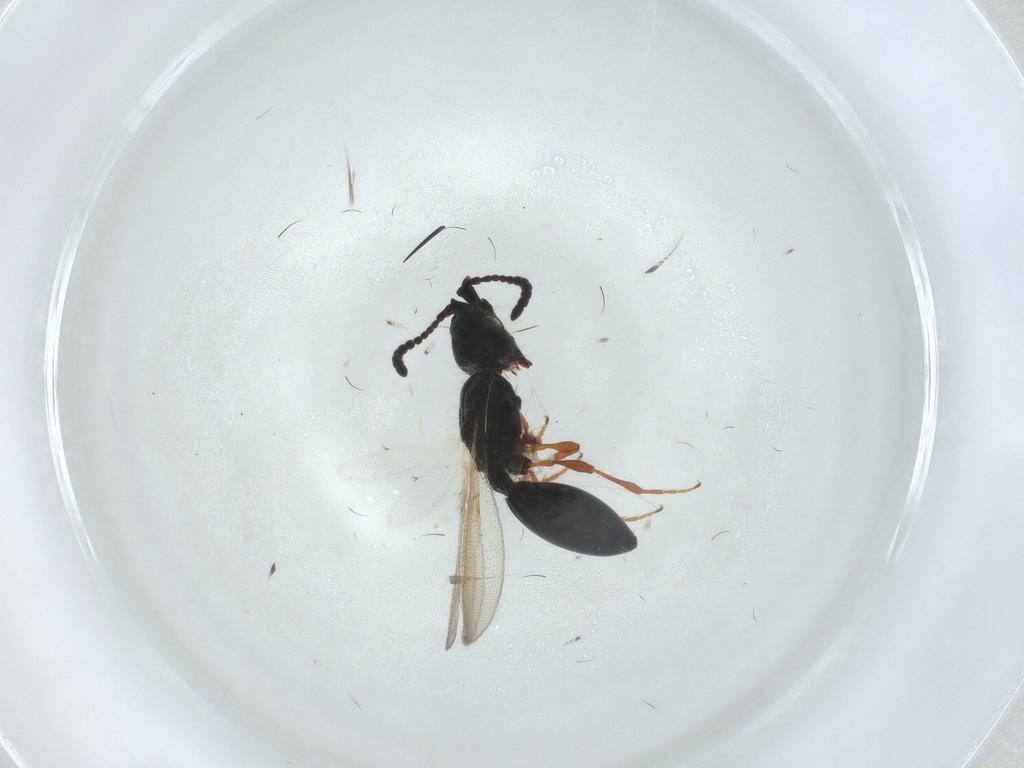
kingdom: Animalia
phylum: Arthropoda
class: Insecta
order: Hymenoptera
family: Diapriidae
